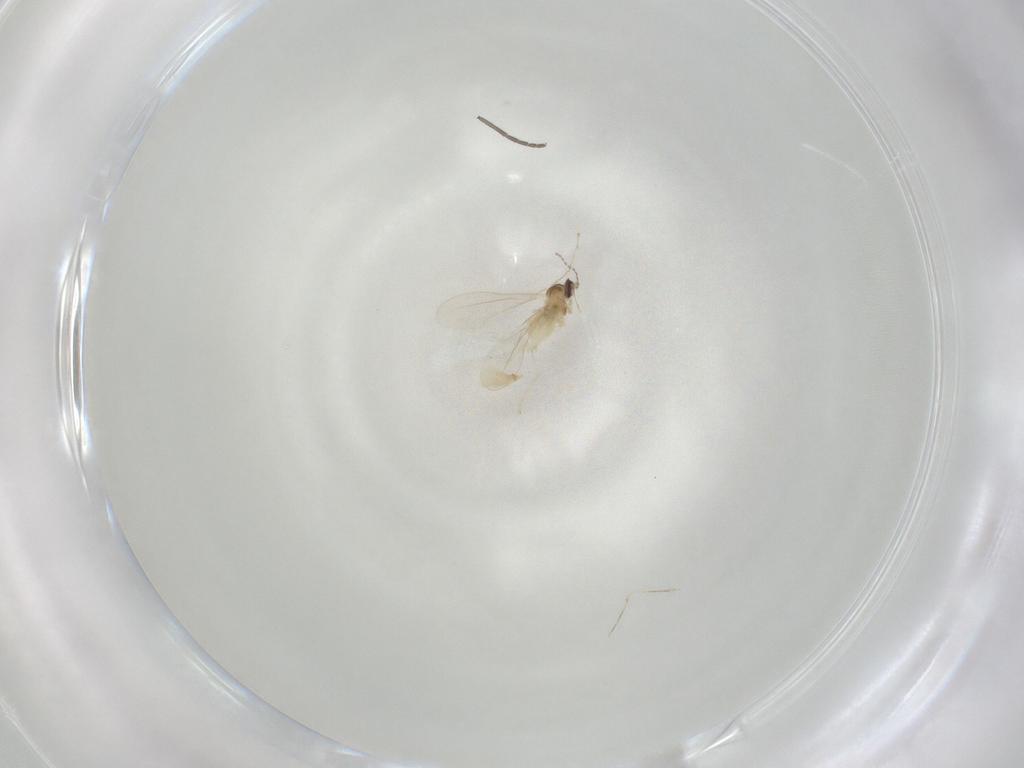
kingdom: Animalia
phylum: Arthropoda
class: Insecta
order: Diptera
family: Cecidomyiidae
